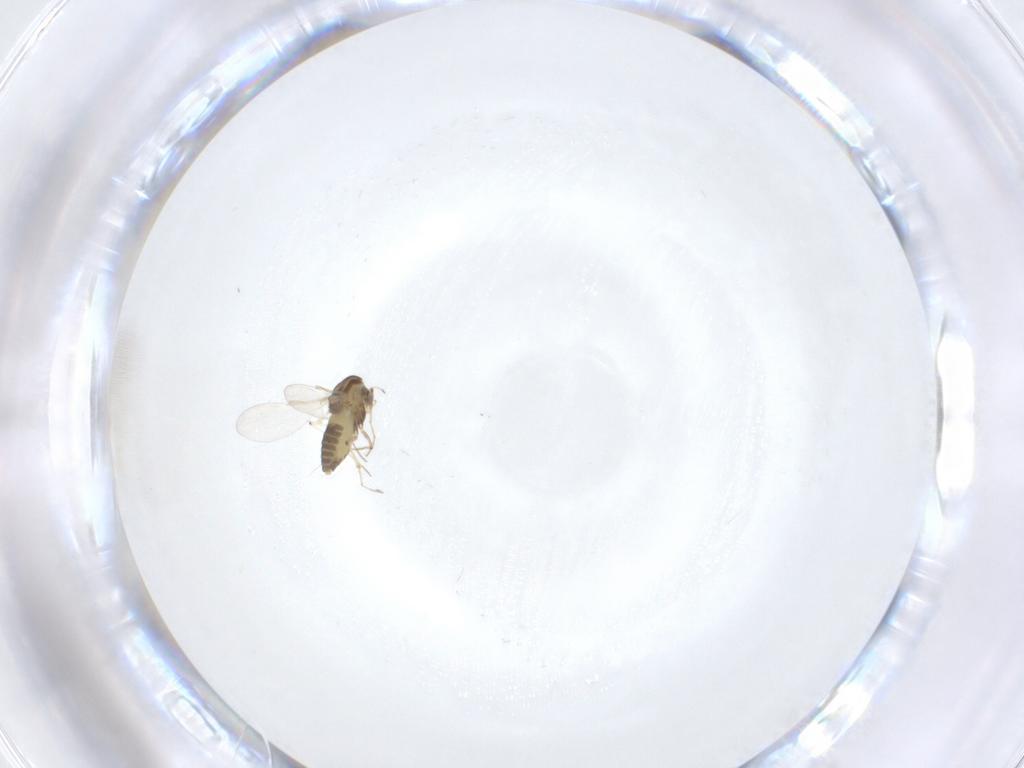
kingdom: Animalia
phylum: Arthropoda
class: Insecta
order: Diptera
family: Chironomidae
